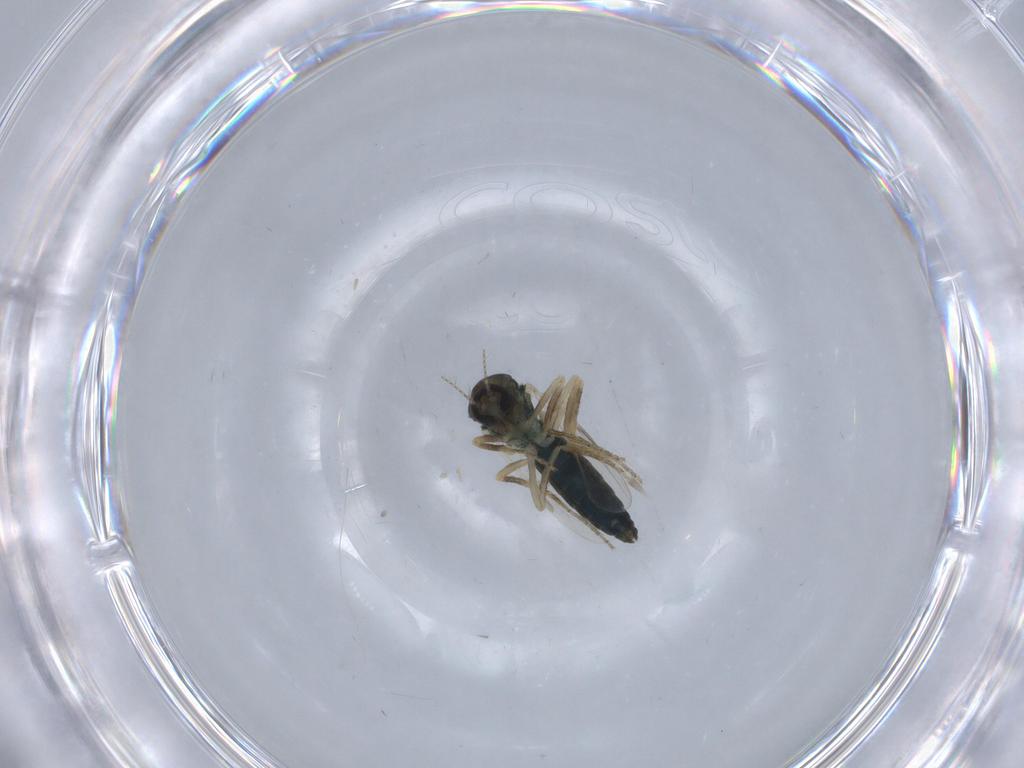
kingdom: Animalia
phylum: Arthropoda
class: Insecta
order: Diptera
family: Ceratopogonidae
